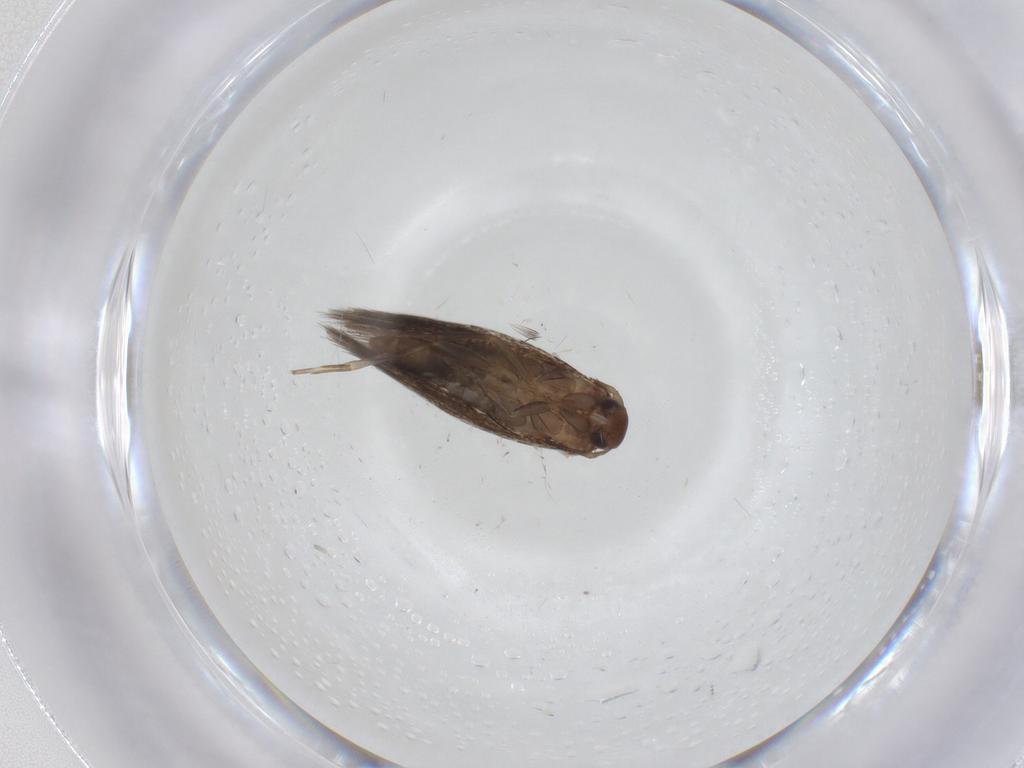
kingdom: Animalia
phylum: Arthropoda
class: Insecta
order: Lepidoptera
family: Elachistidae
